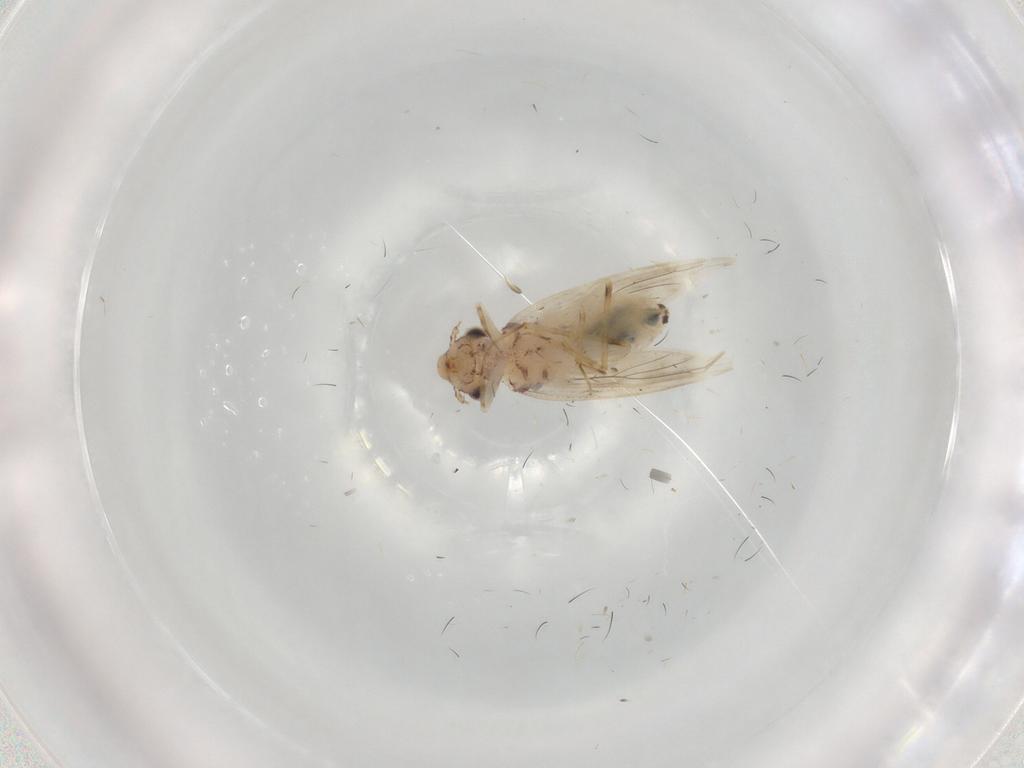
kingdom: Animalia
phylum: Arthropoda
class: Insecta
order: Psocodea
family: Lepidopsocidae
